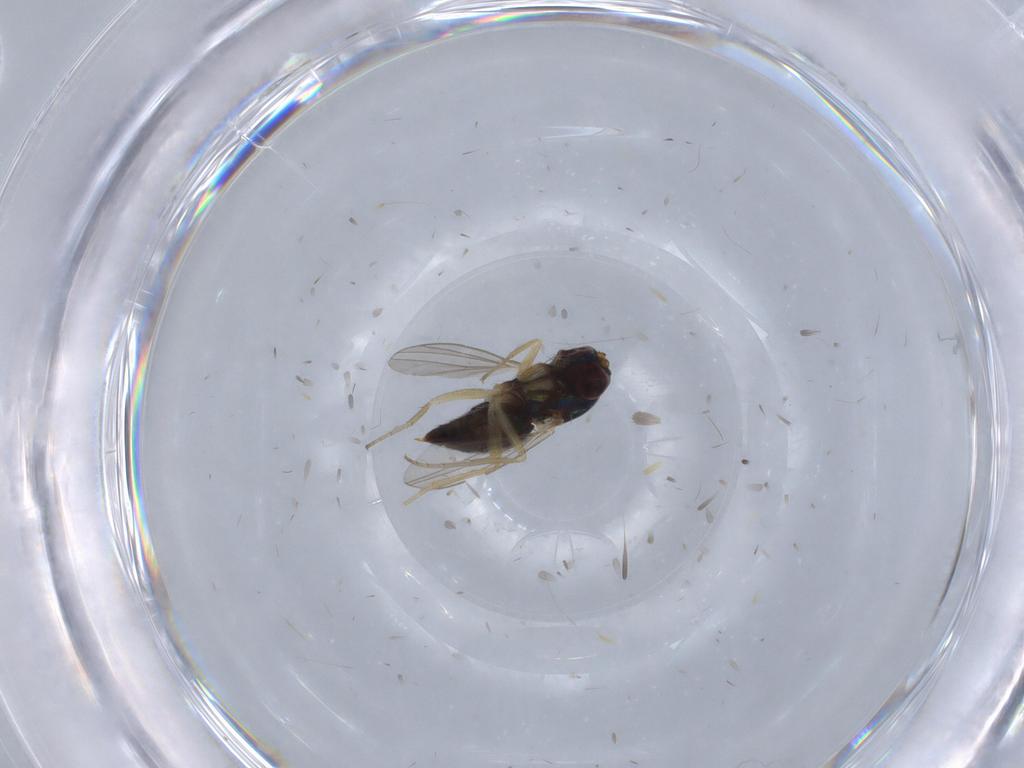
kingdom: Animalia
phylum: Arthropoda
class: Insecta
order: Diptera
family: Dolichopodidae
